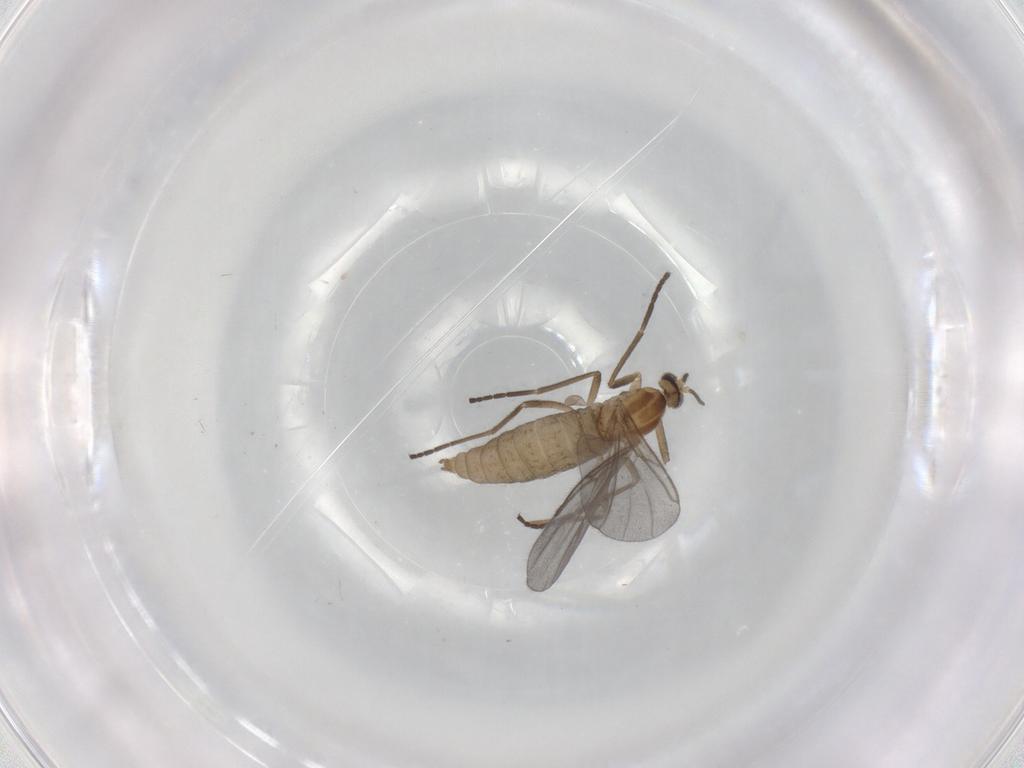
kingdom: Animalia
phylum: Arthropoda
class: Insecta
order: Diptera
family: Cecidomyiidae
